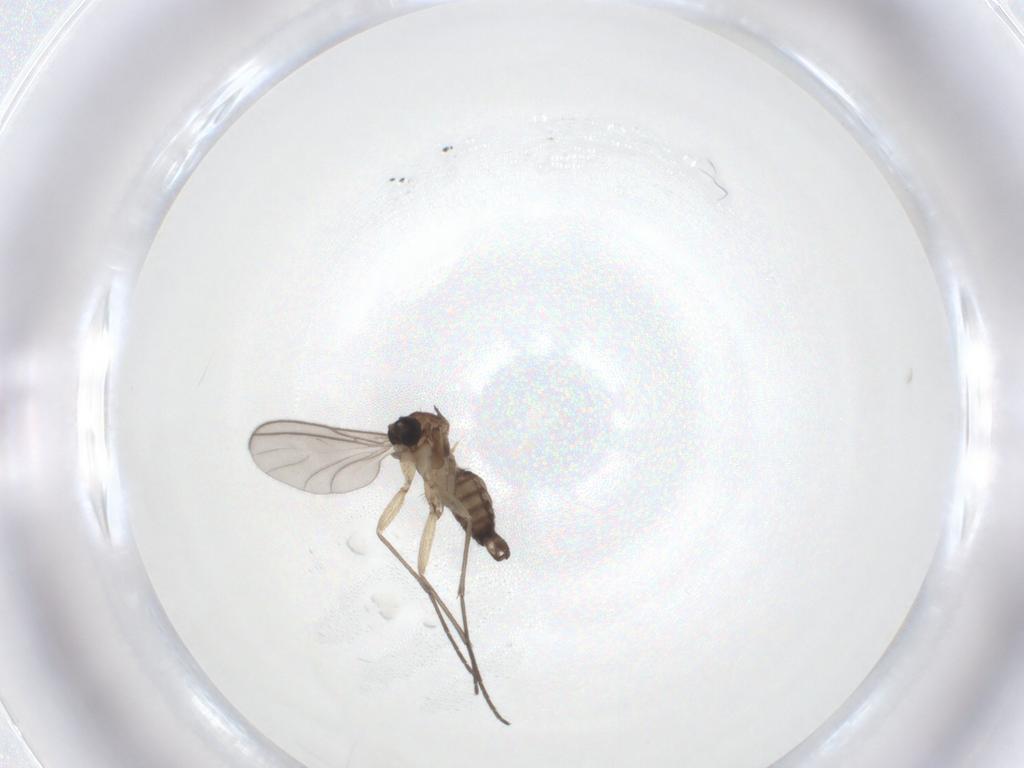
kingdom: Animalia
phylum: Arthropoda
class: Insecta
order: Diptera
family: Sciaridae
